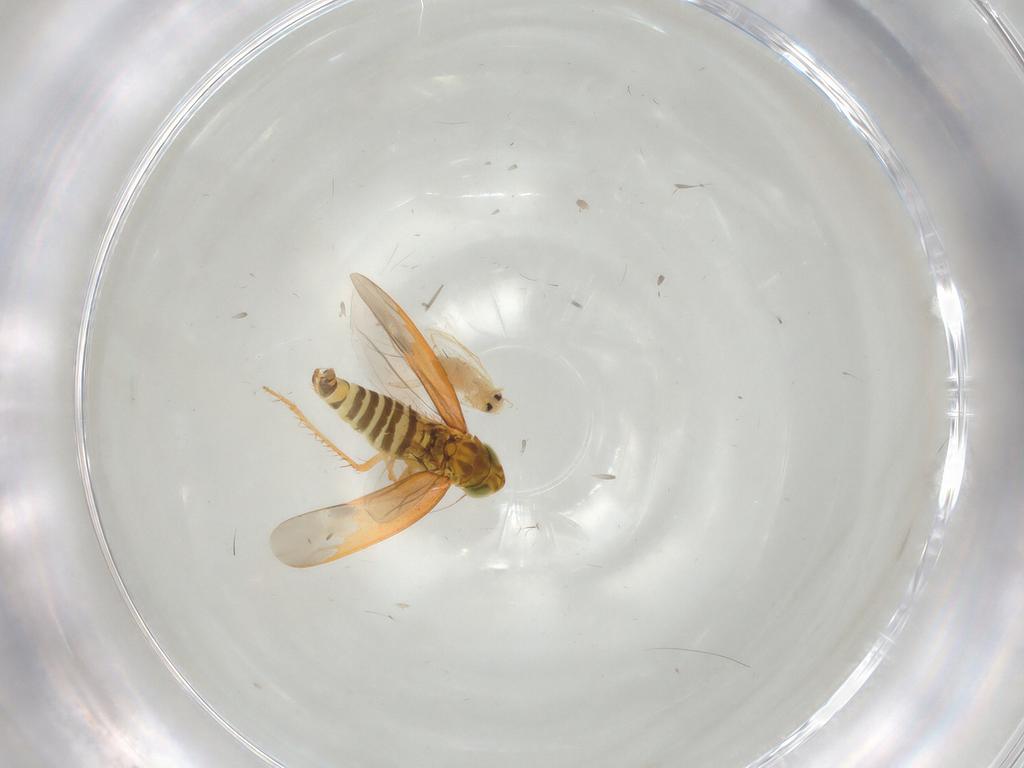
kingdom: Animalia
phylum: Arthropoda
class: Insecta
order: Hemiptera
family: Cicadellidae
